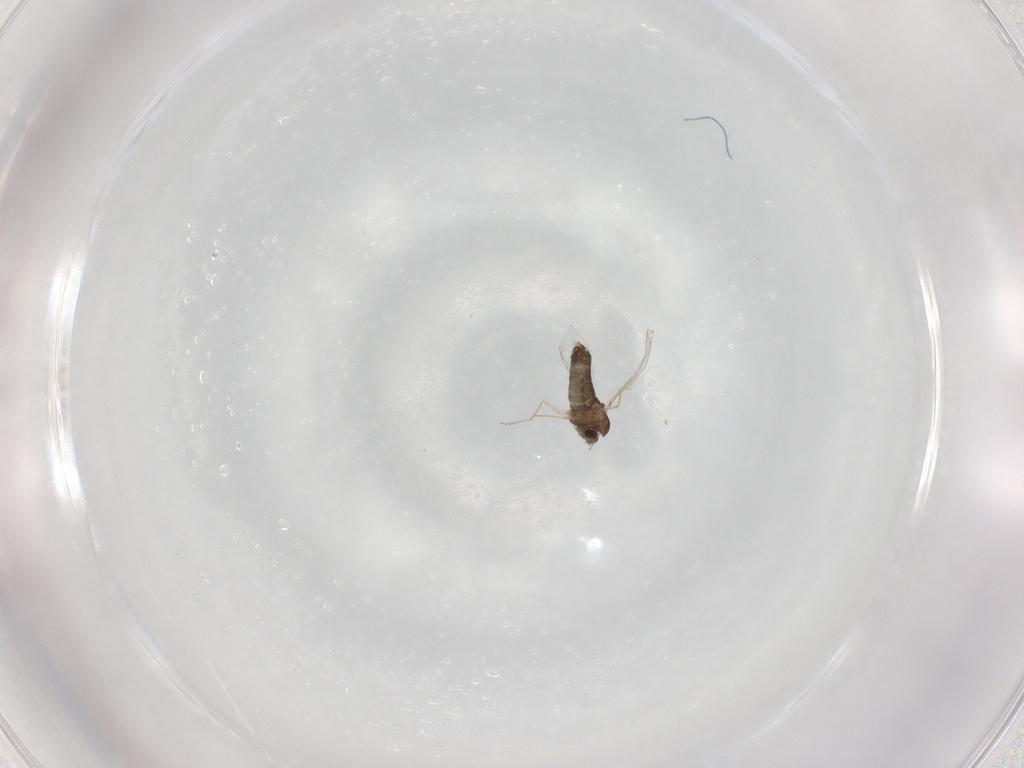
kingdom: Animalia
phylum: Arthropoda
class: Insecta
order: Diptera
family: Chironomidae
